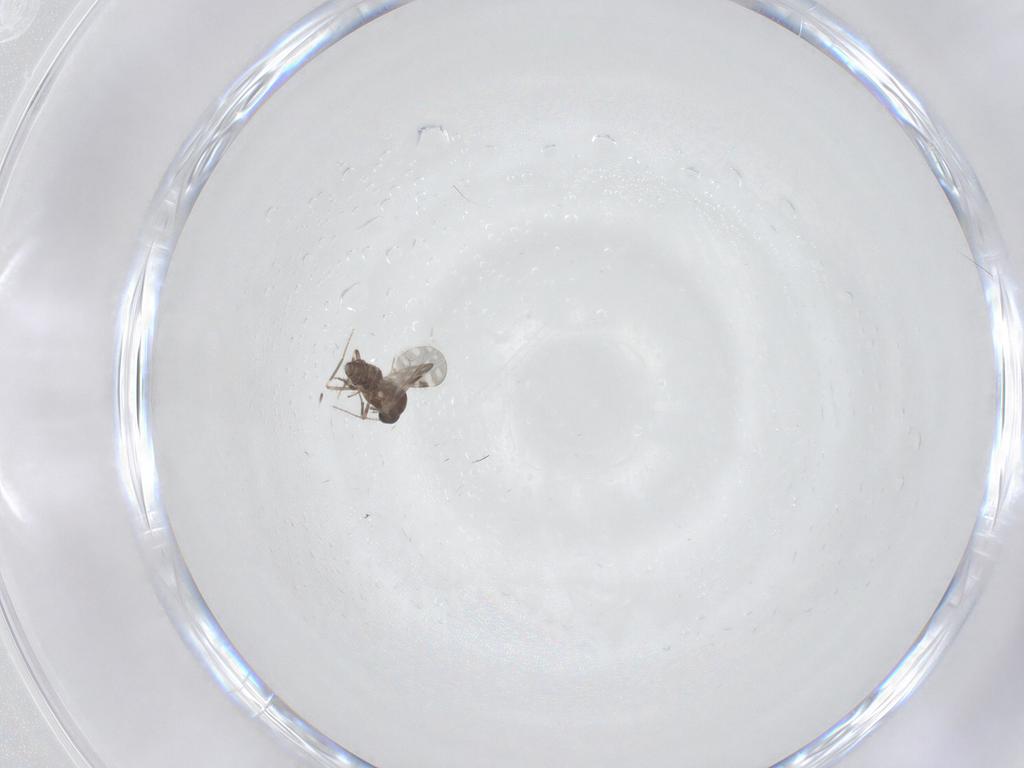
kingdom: Animalia
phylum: Arthropoda
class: Insecta
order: Diptera
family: Ceratopogonidae
